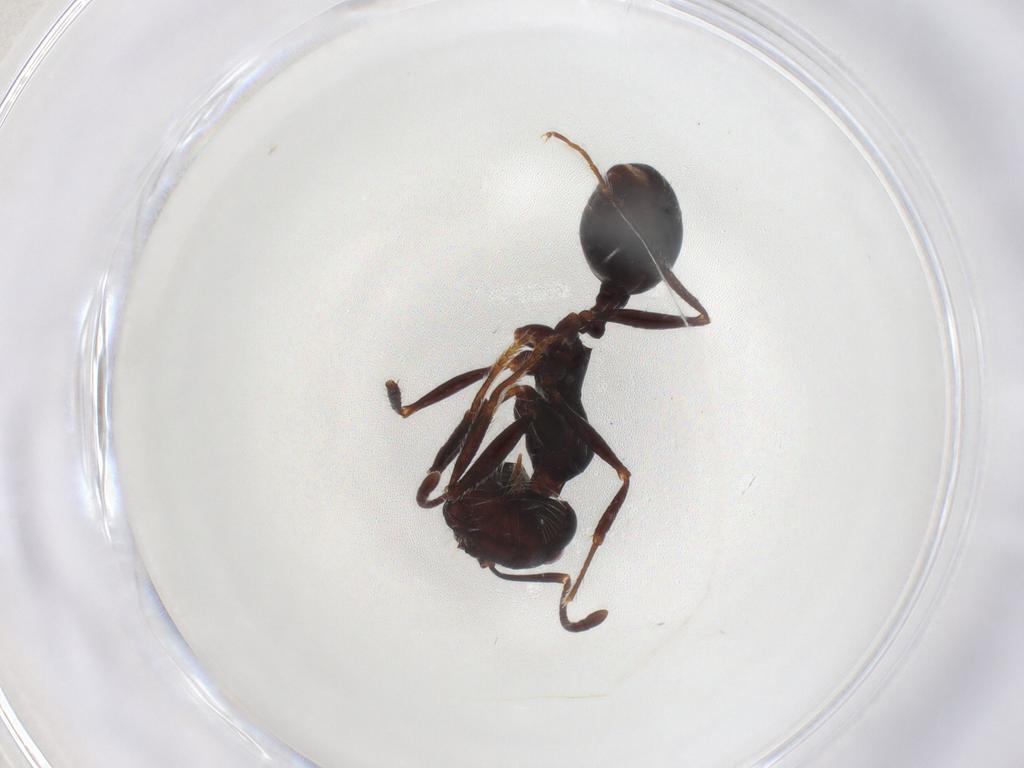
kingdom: Animalia
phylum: Arthropoda
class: Insecta
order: Hymenoptera
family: Formicidae
